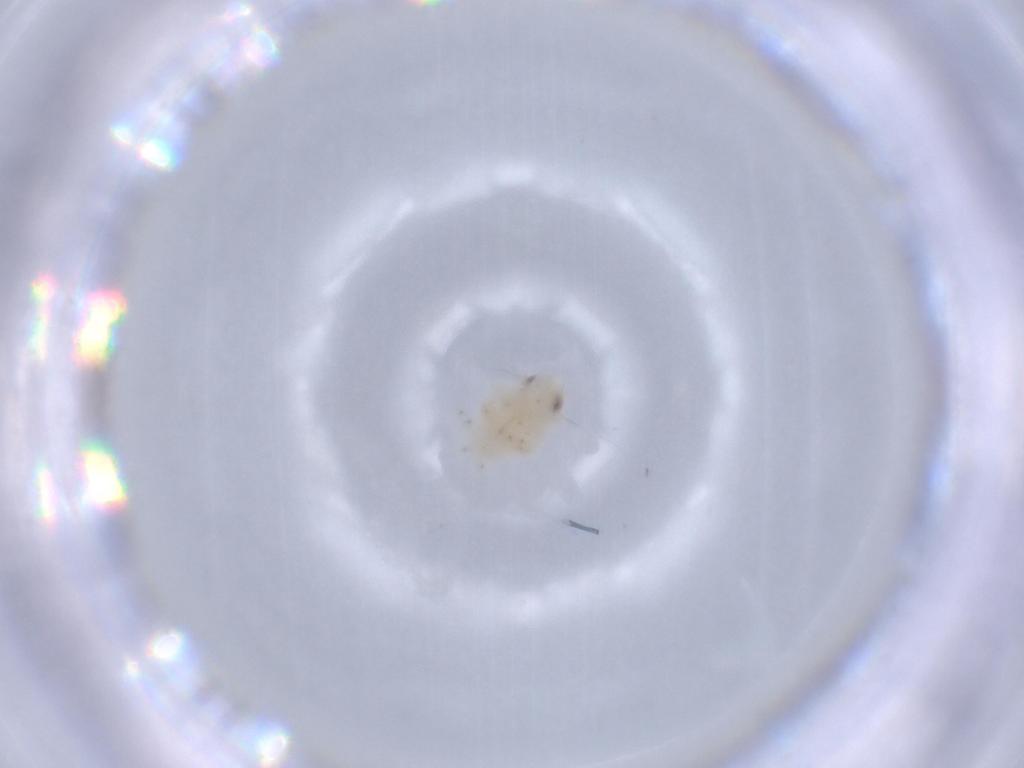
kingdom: Animalia
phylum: Arthropoda
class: Insecta
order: Hemiptera
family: Nogodinidae
